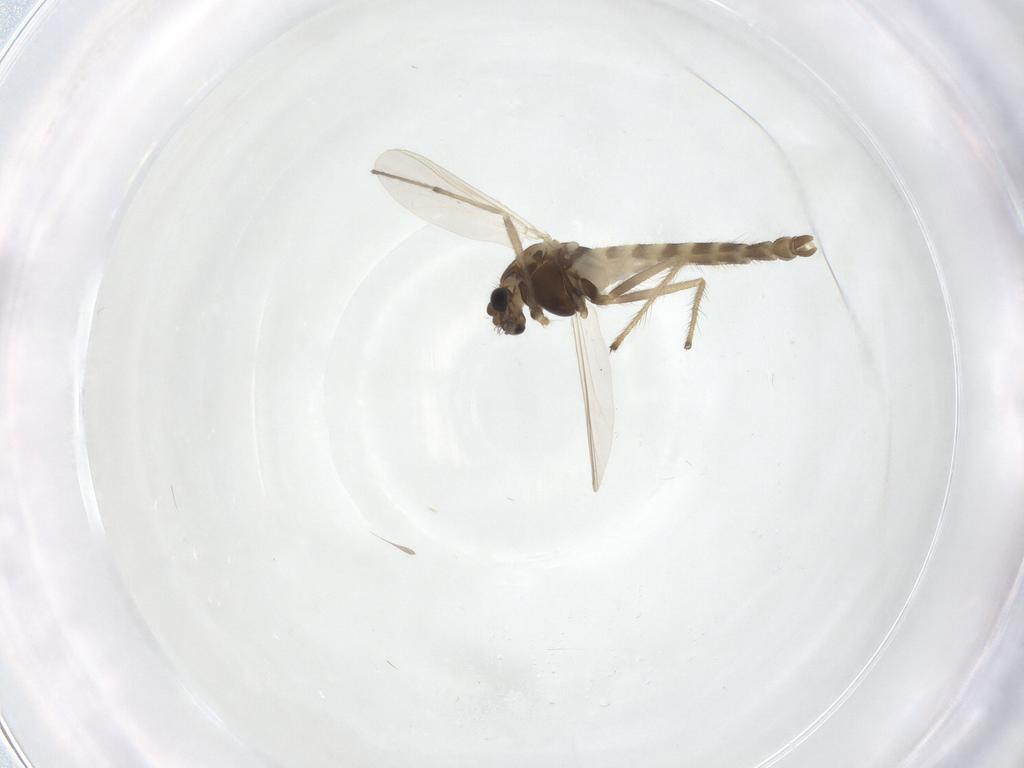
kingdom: Animalia
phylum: Arthropoda
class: Insecta
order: Diptera
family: Chironomidae
